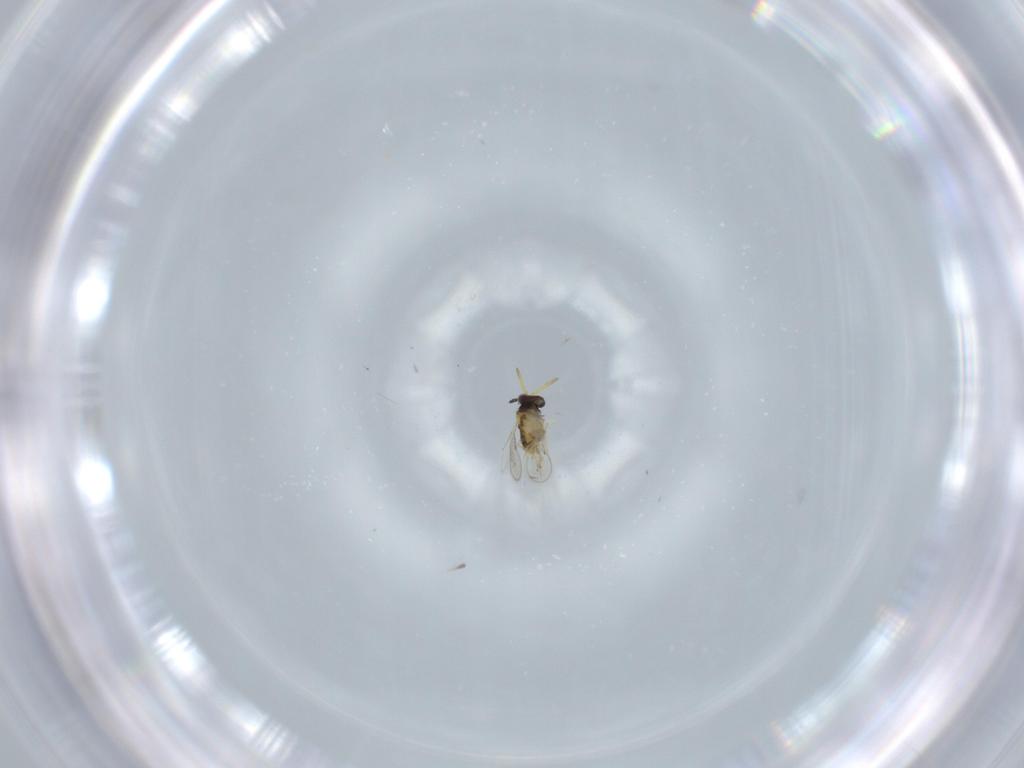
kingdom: Animalia
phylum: Arthropoda
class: Insecta
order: Hymenoptera
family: Aphelinidae
